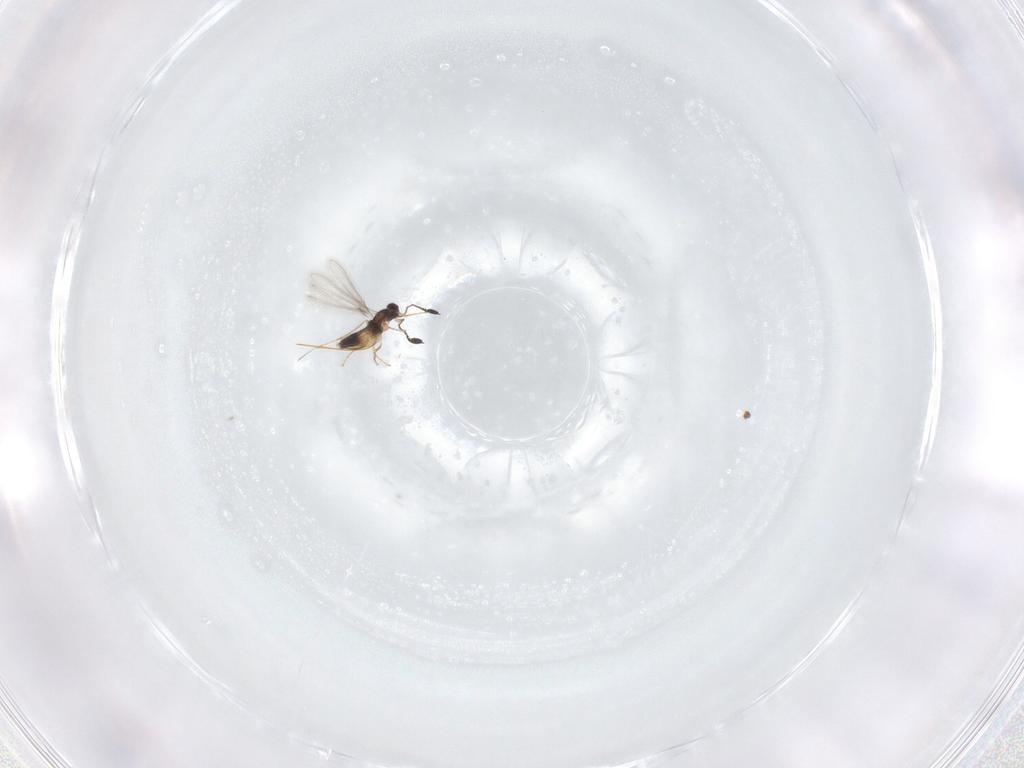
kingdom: Animalia
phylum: Arthropoda
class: Insecta
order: Hymenoptera
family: Mymaridae
